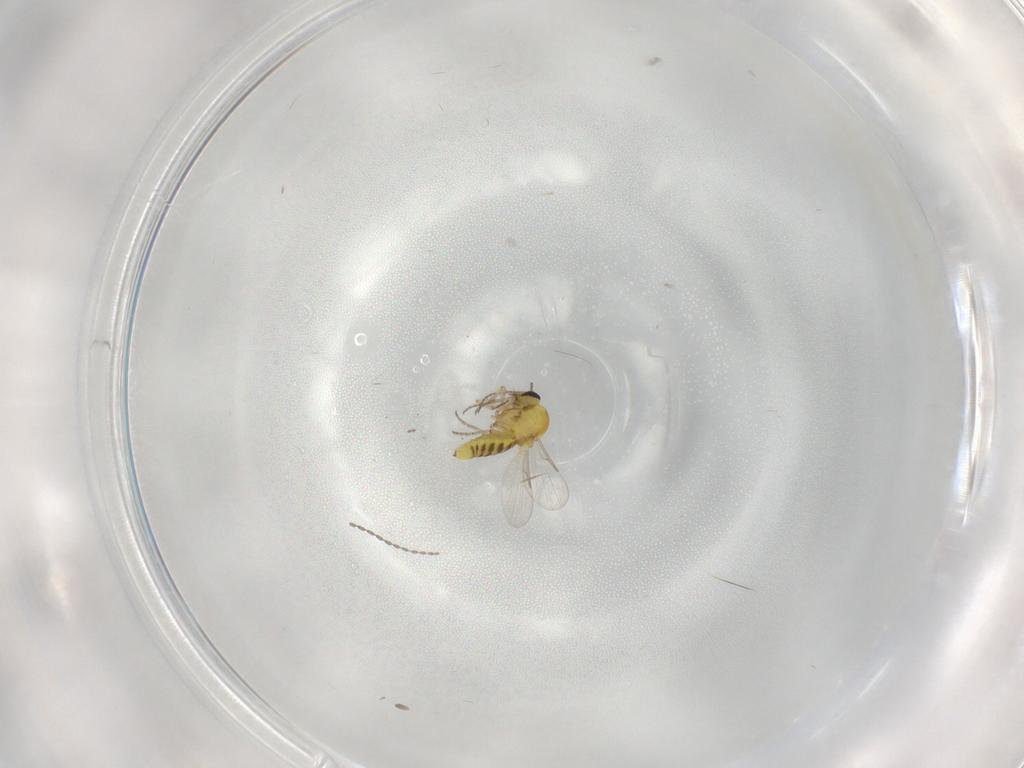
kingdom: Animalia
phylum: Arthropoda
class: Insecta
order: Diptera
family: Ceratopogonidae
